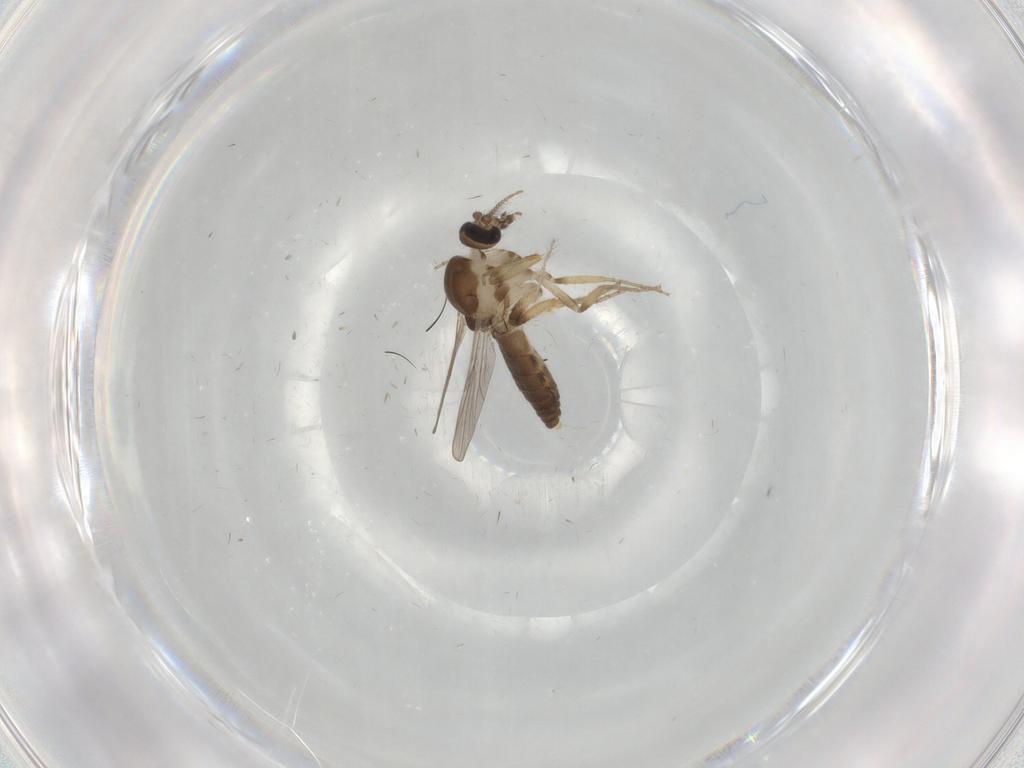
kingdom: Animalia
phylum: Arthropoda
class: Insecta
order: Diptera
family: Ceratopogonidae
